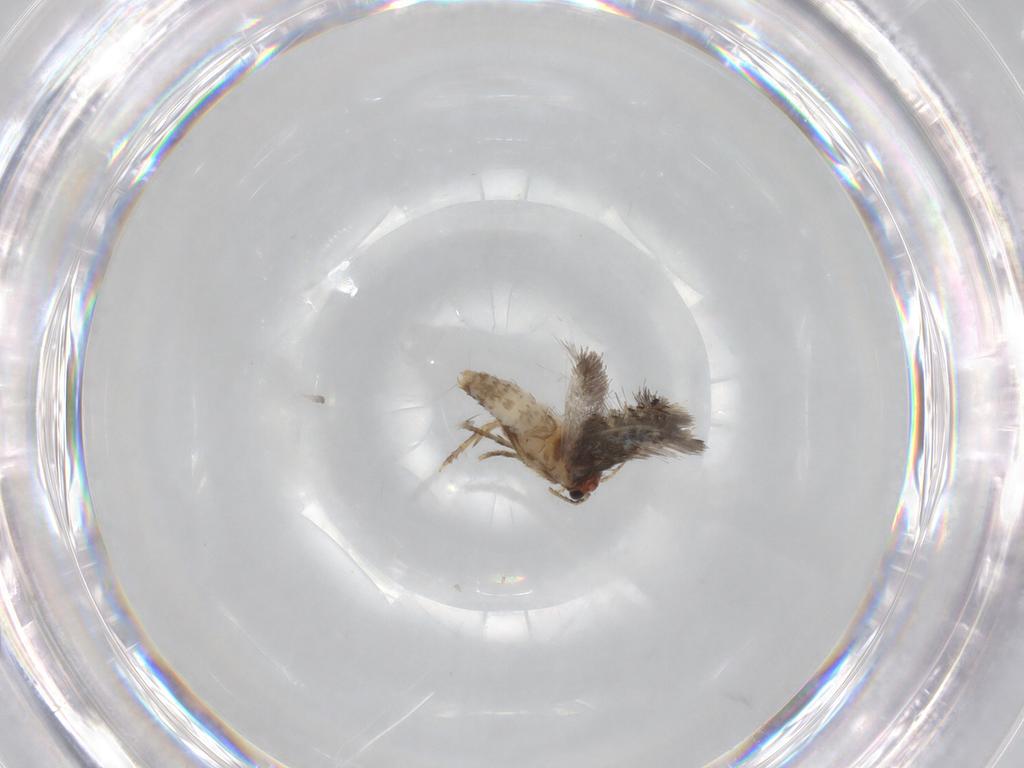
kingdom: Animalia
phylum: Arthropoda
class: Insecta
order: Lepidoptera
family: Nepticulidae
